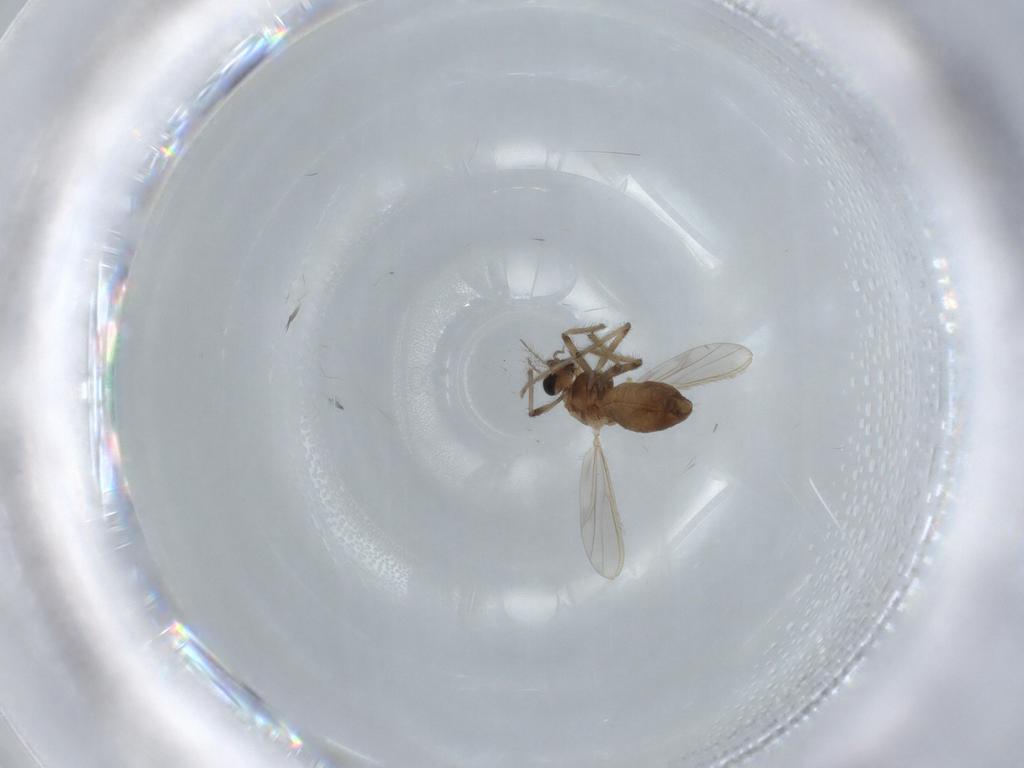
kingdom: Animalia
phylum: Arthropoda
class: Insecta
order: Diptera
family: Chironomidae
